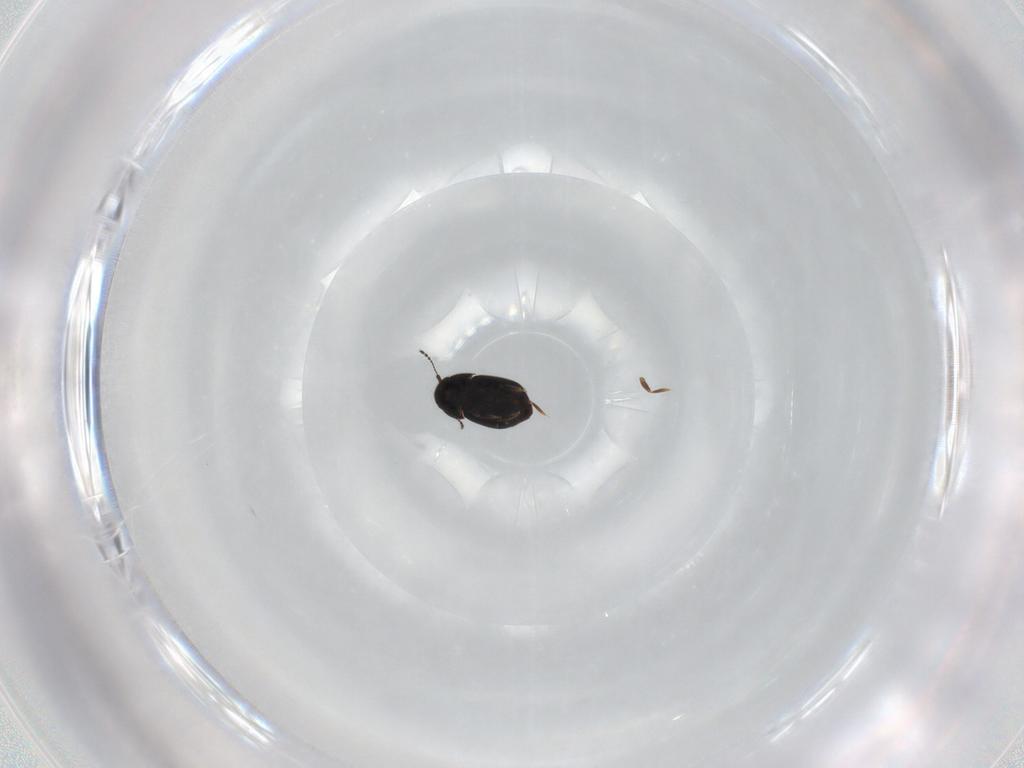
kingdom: Animalia
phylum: Arthropoda
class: Insecta
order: Coleoptera
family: Ptiliidae
